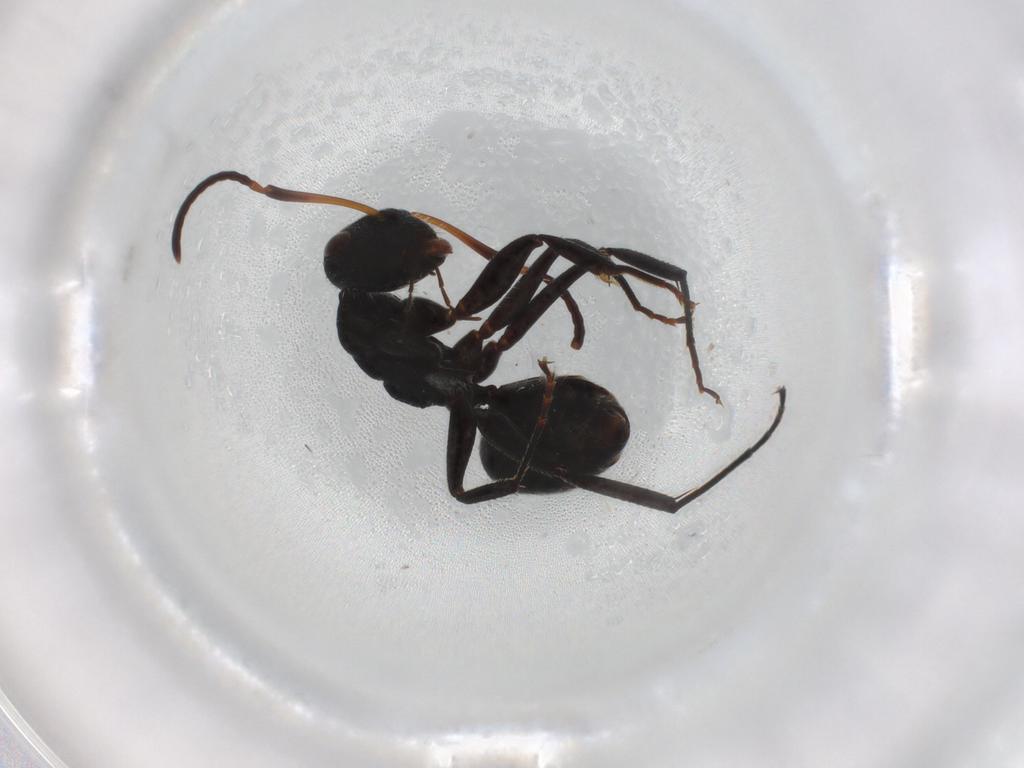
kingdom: Animalia
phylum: Arthropoda
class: Insecta
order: Hymenoptera
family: Formicidae
